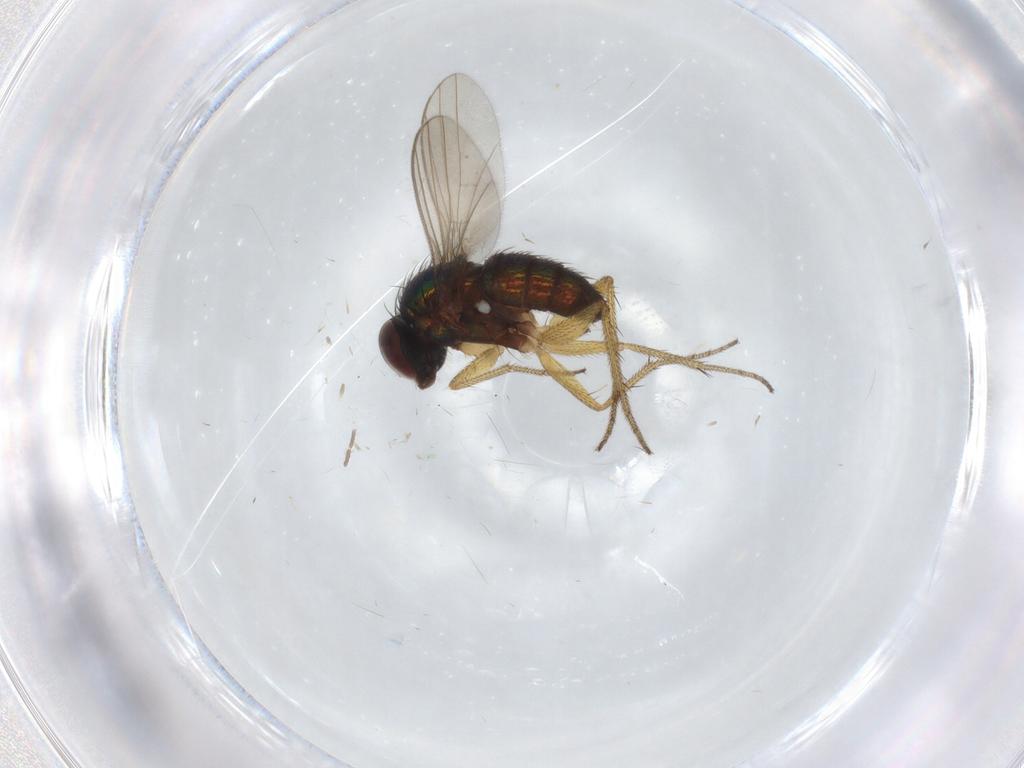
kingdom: Animalia
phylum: Arthropoda
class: Insecta
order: Diptera
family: Dolichopodidae
